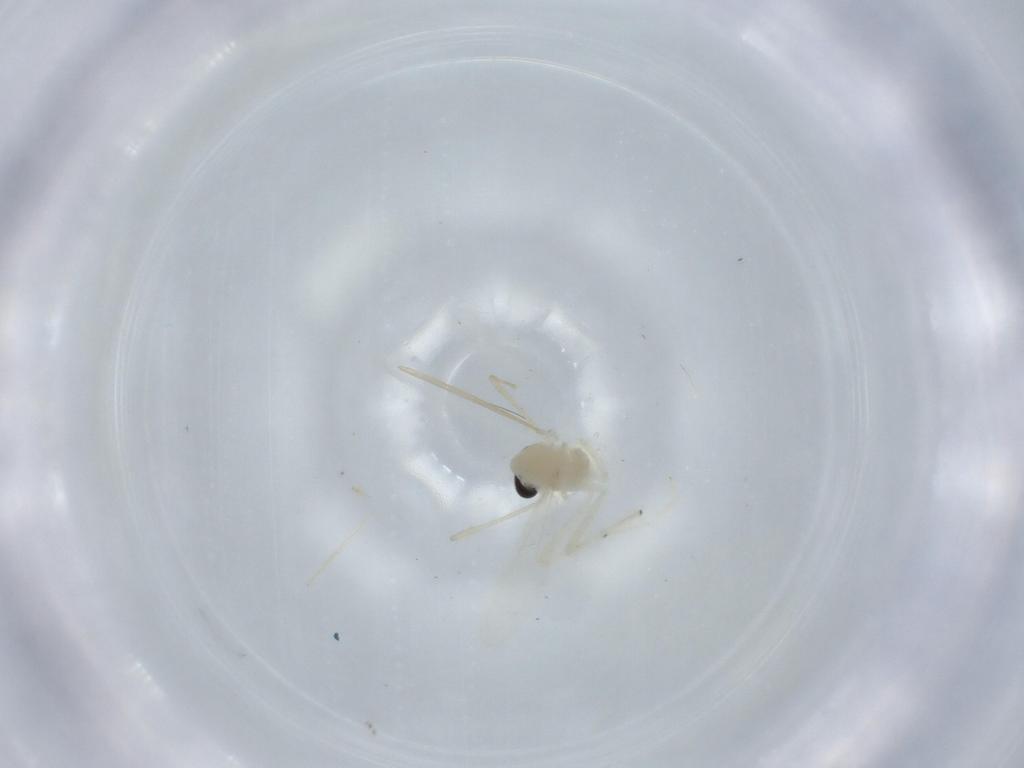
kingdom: Animalia
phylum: Arthropoda
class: Insecta
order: Diptera
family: Chironomidae
